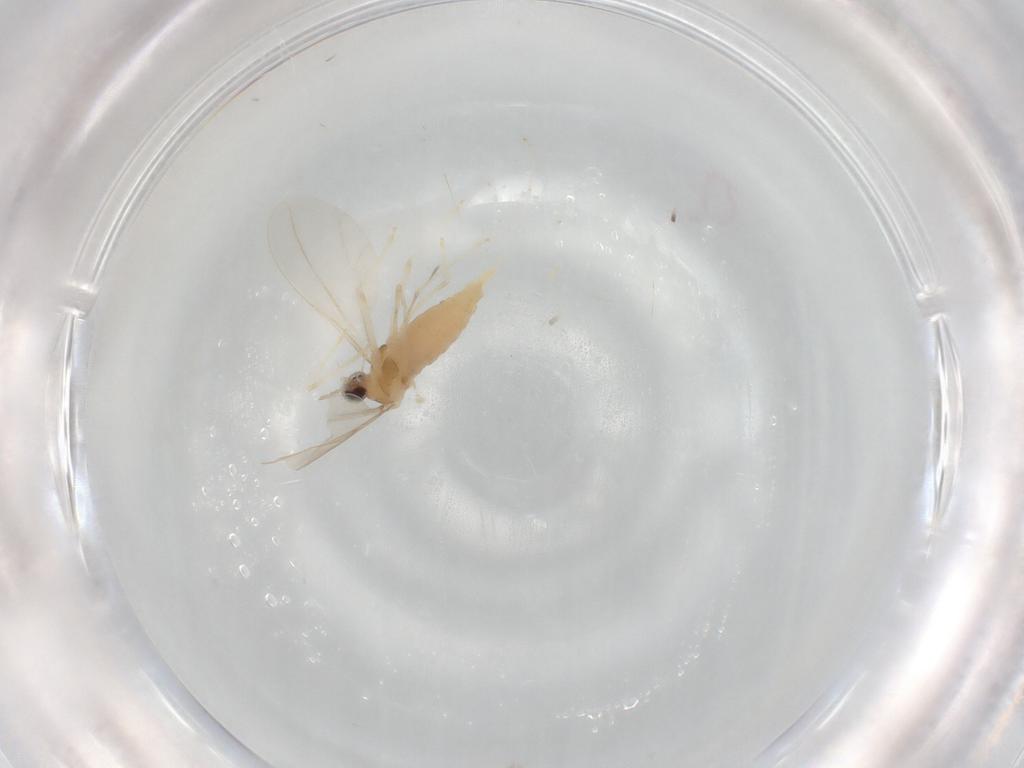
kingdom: Animalia
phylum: Arthropoda
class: Insecta
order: Diptera
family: Cecidomyiidae
